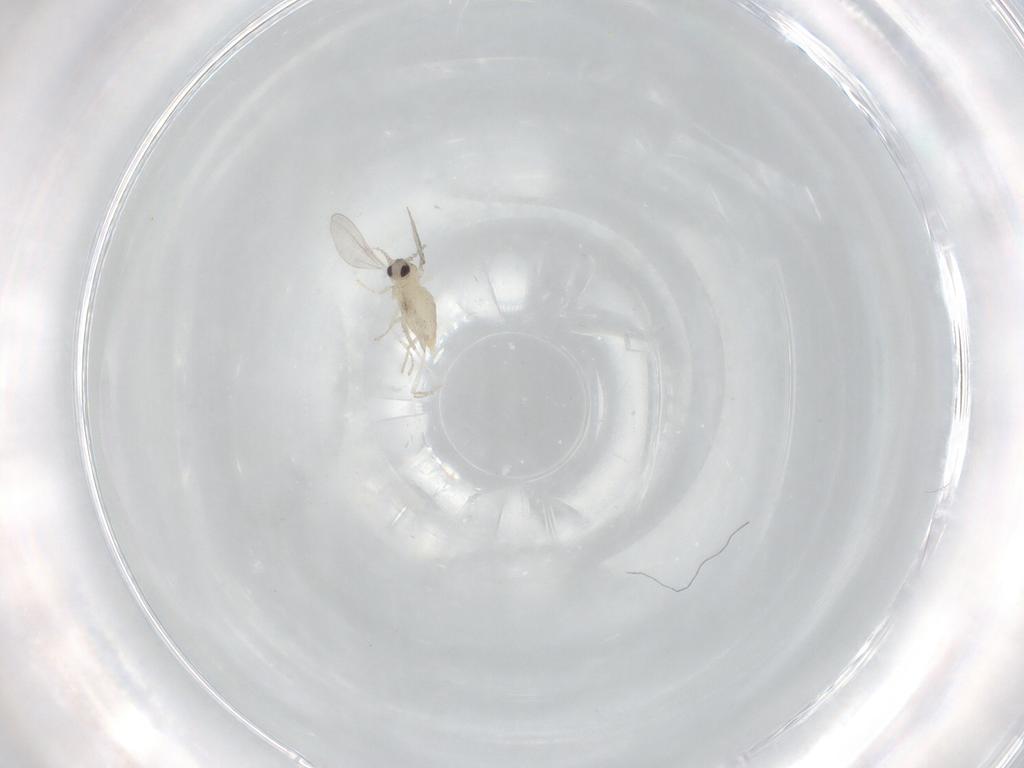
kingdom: Animalia
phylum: Arthropoda
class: Insecta
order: Diptera
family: Sciaridae
